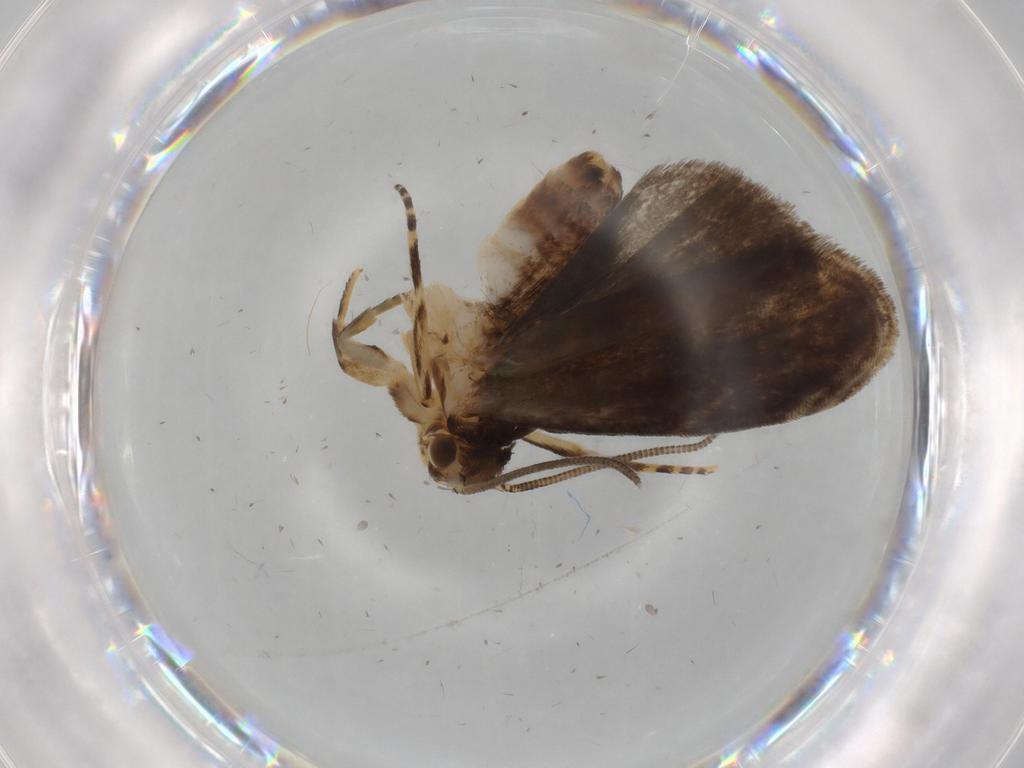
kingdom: Animalia
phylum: Arthropoda
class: Insecta
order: Lepidoptera
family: Dryadaulidae
